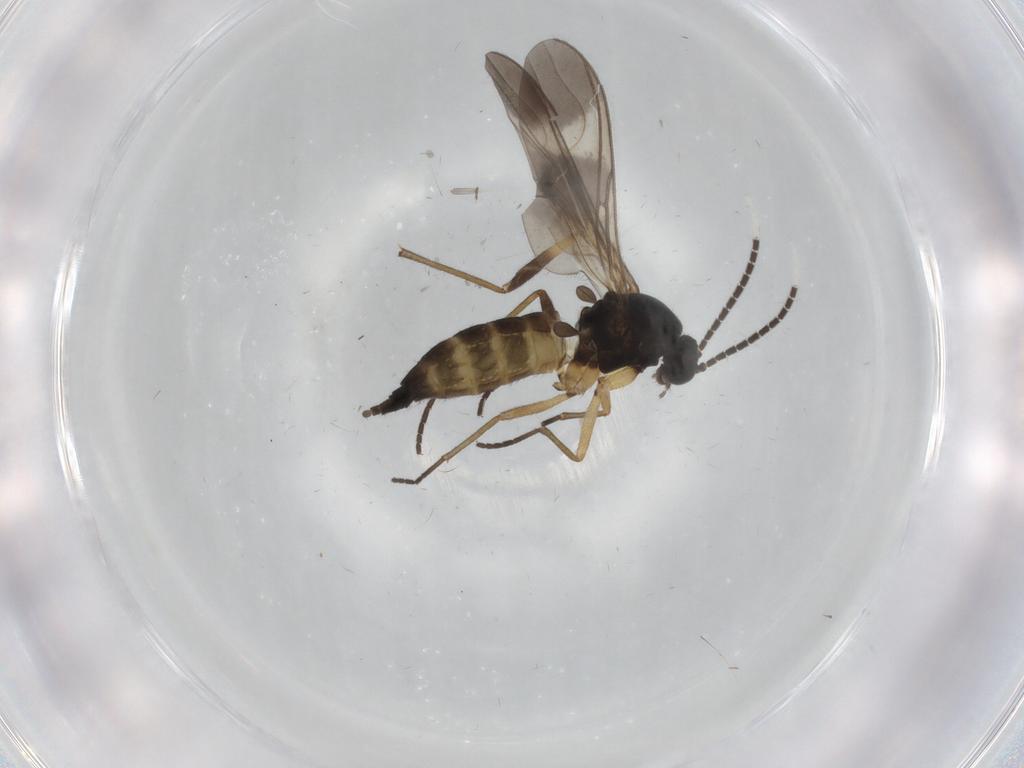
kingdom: Animalia
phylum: Arthropoda
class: Insecta
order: Diptera
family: Sciaridae
